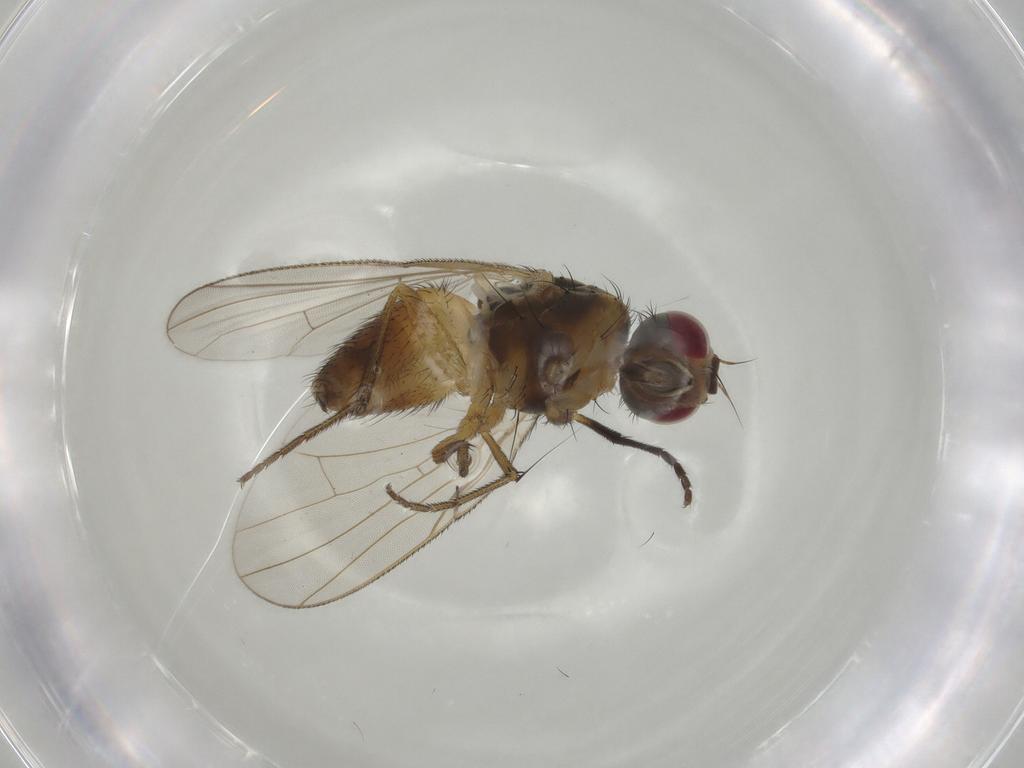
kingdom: Animalia
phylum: Arthropoda
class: Insecta
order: Diptera
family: Muscidae
